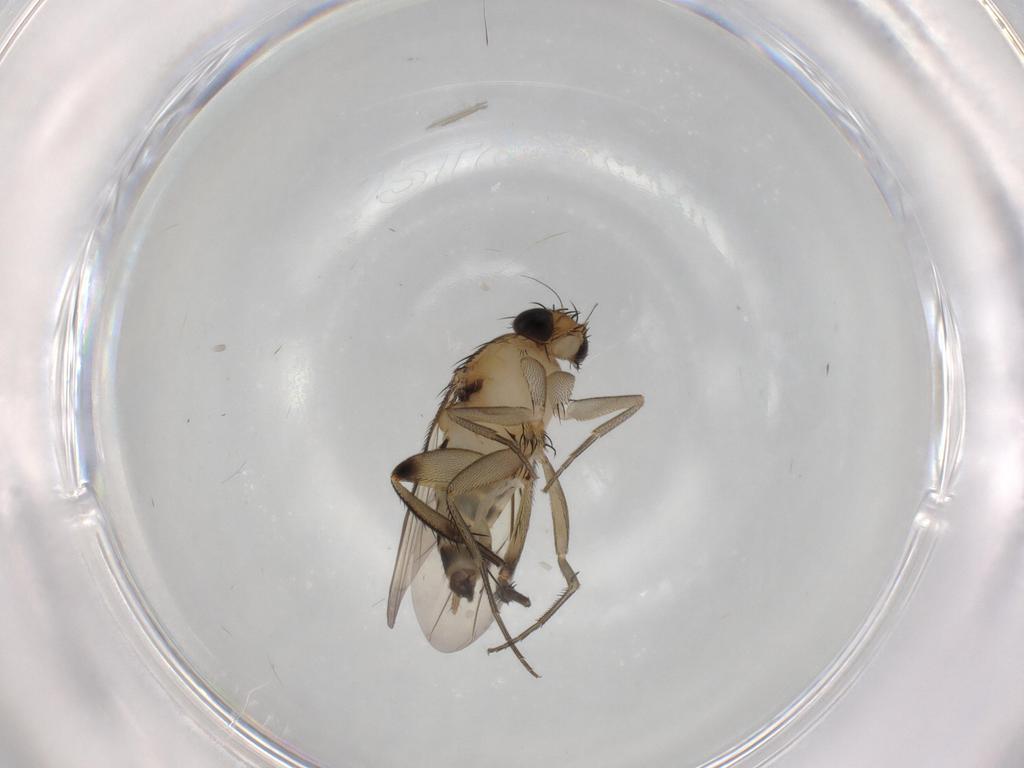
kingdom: Animalia
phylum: Arthropoda
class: Insecta
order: Diptera
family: Phoridae
